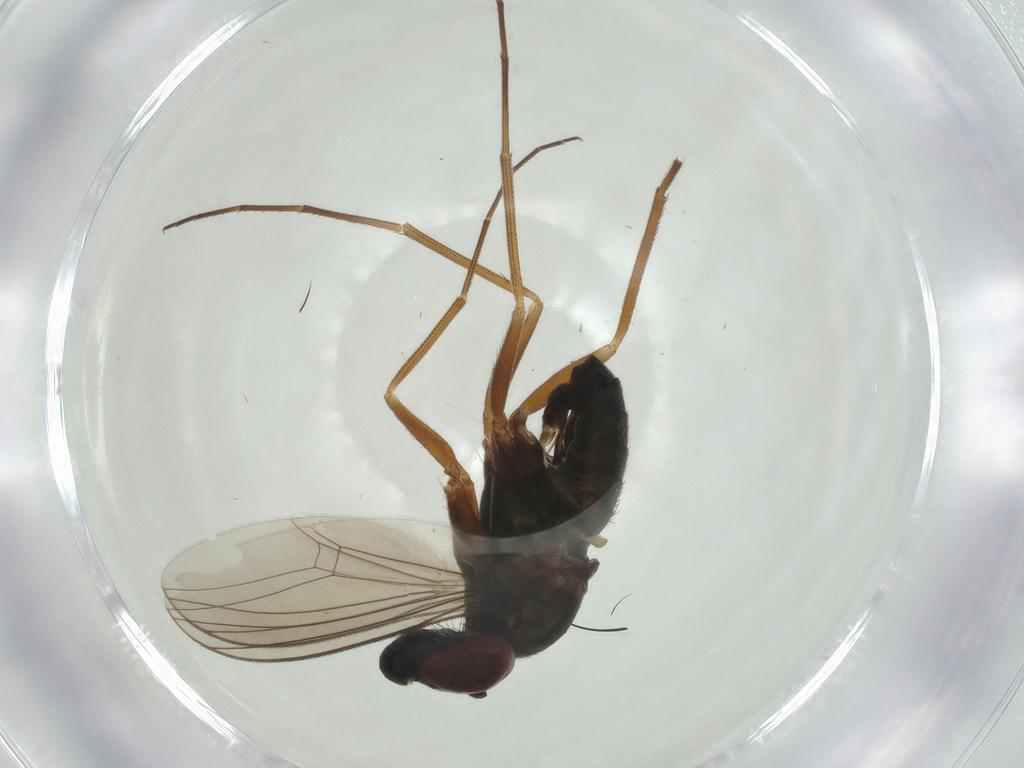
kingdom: Animalia
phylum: Arthropoda
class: Insecta
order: Diptera
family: Dolichopodidae
